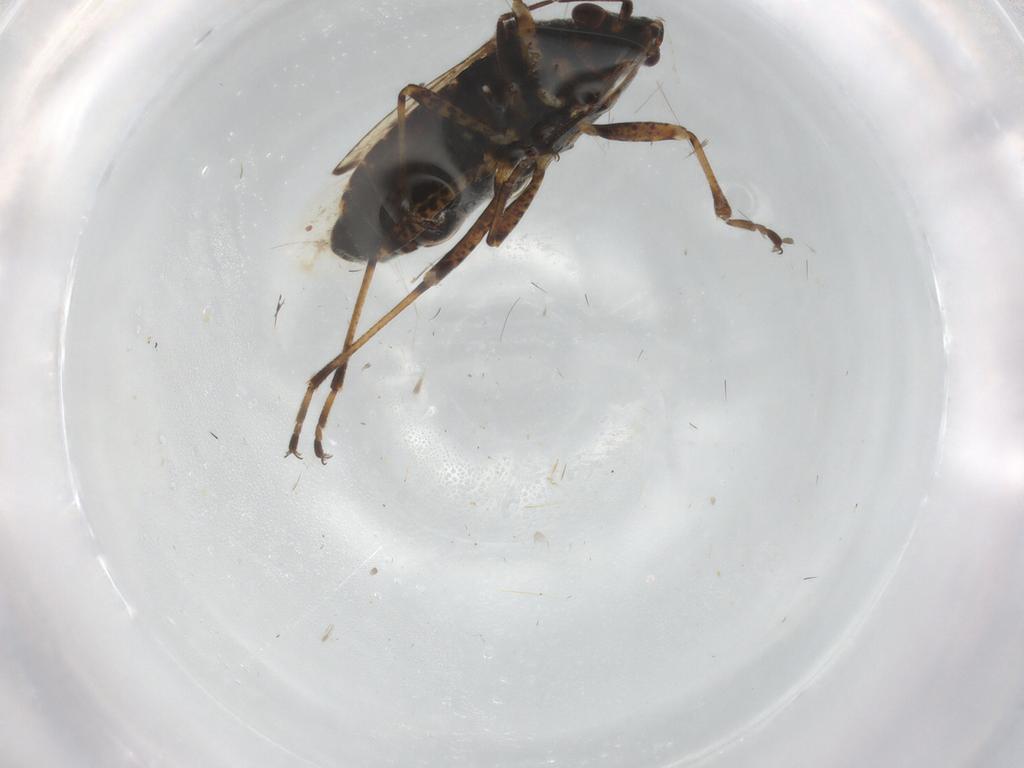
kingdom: Animalia
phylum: Arthropoda
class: Insecta
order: Hemiptera
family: Lygaeidae
